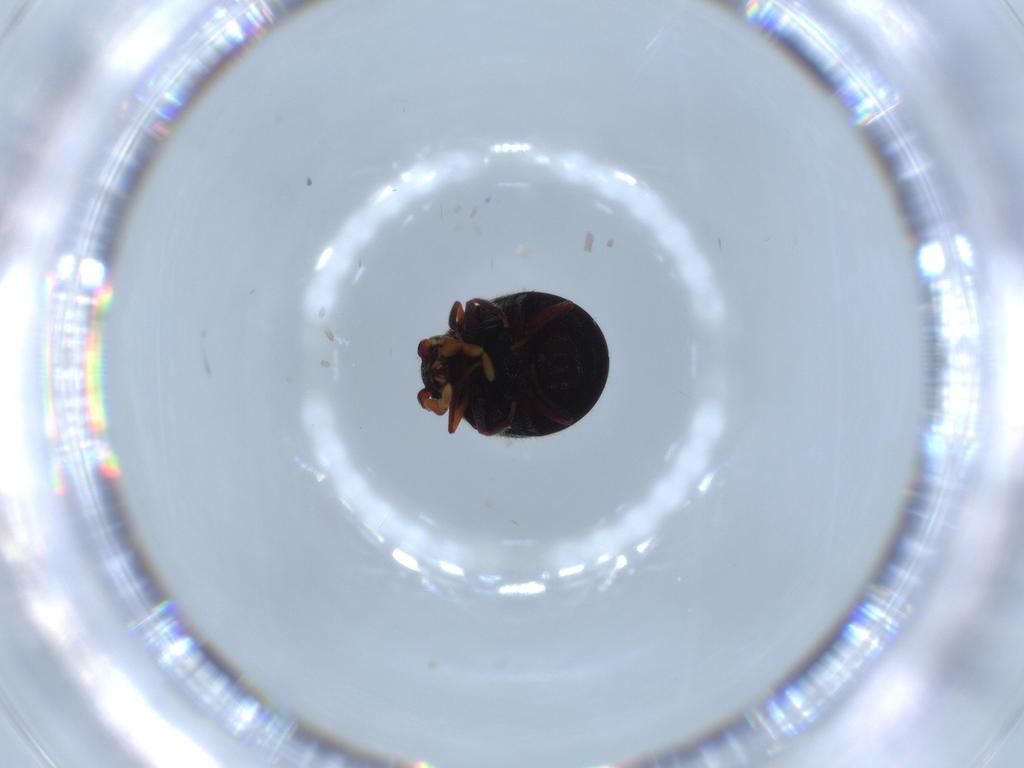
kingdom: Animalia
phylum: Arthropoda
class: Insecta
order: Coleoptera
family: Ptinidae
